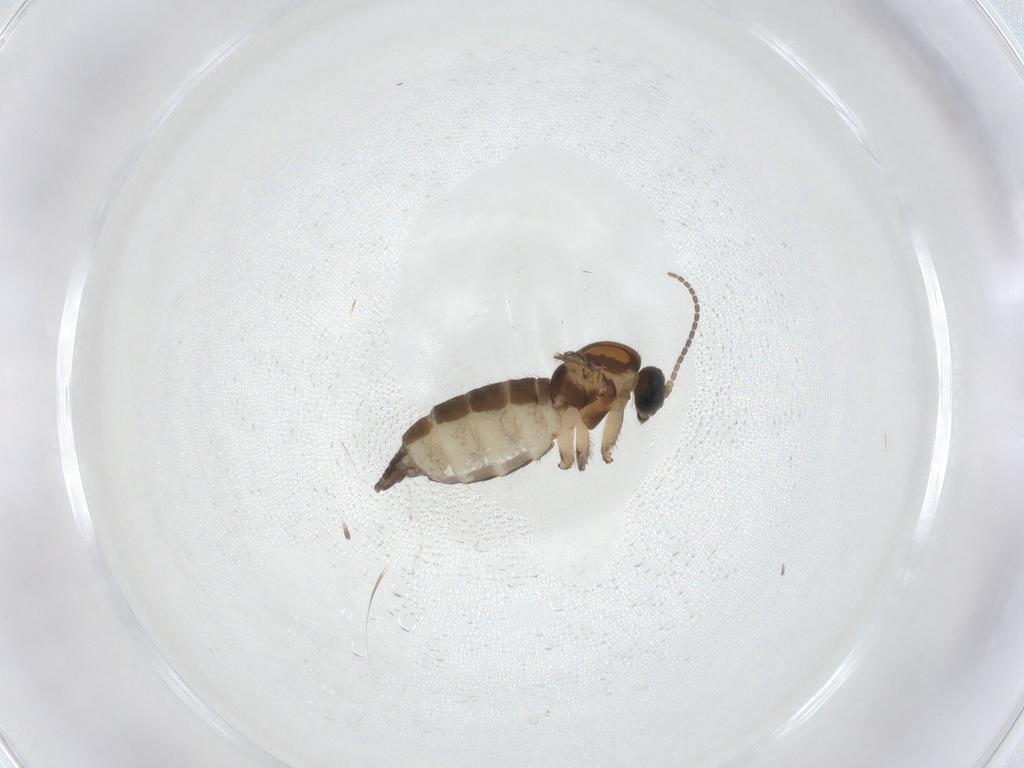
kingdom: Animalia
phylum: Arthropoda
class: Insecta
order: Diptera
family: Sciaridae
